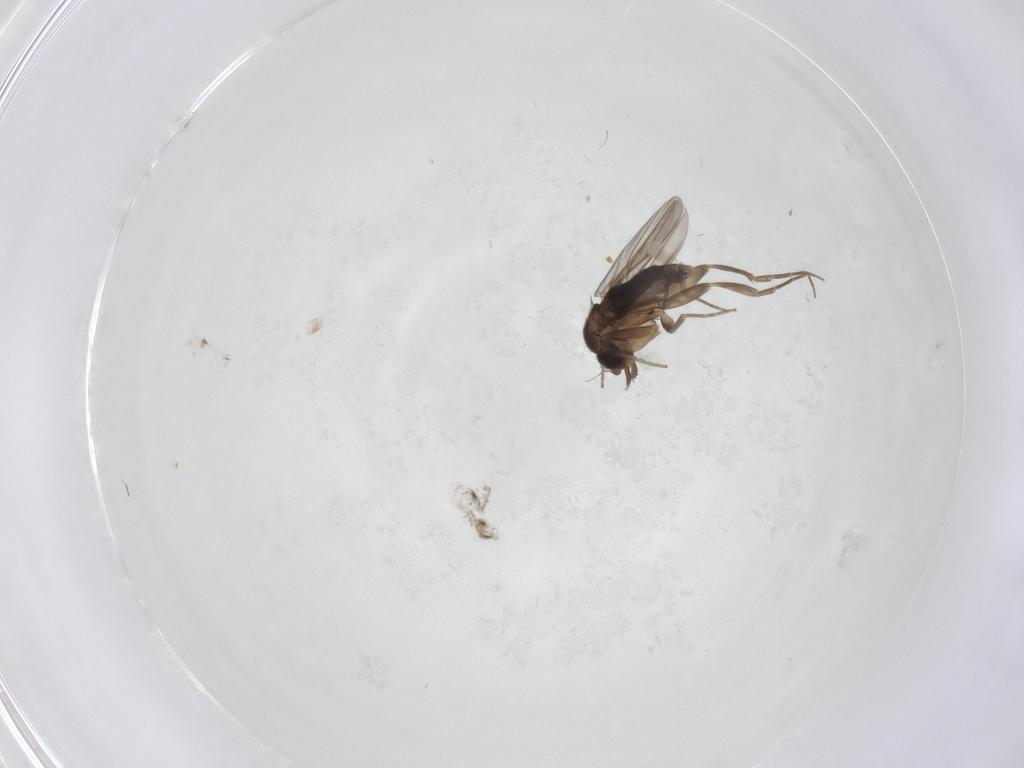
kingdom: Animalia
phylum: Arthropoda
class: Insecta
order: Diptera
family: Phoridae
